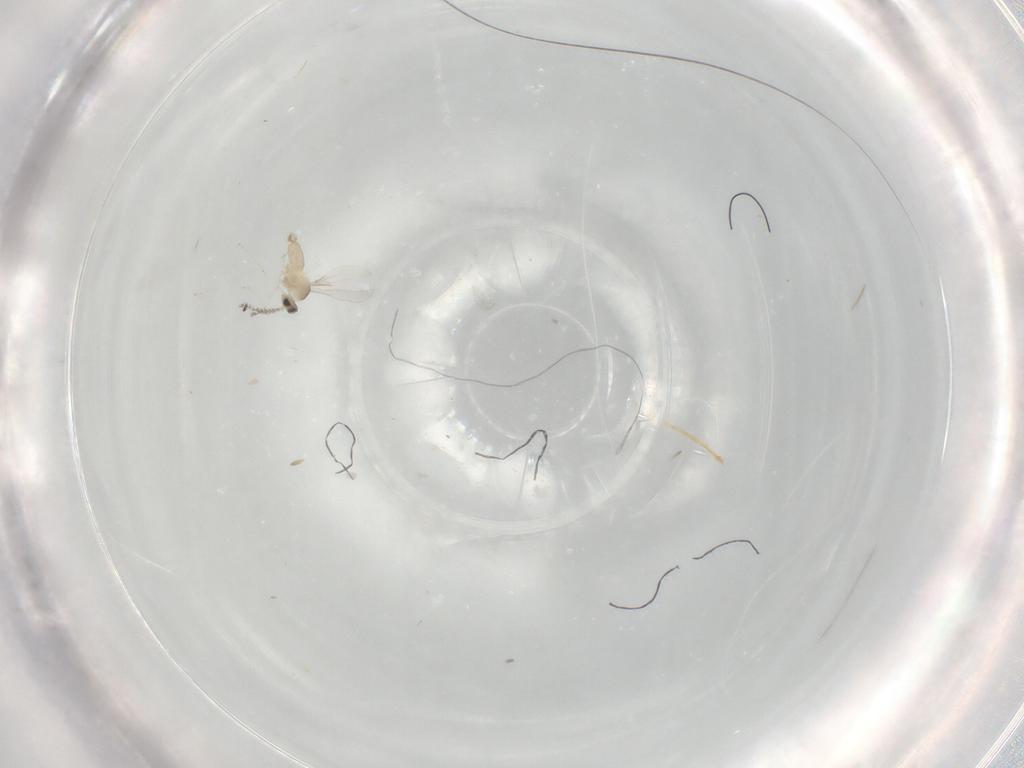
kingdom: Animalia
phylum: Arthropoda
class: Insecta
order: Diptera
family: Cecidomyiidae
